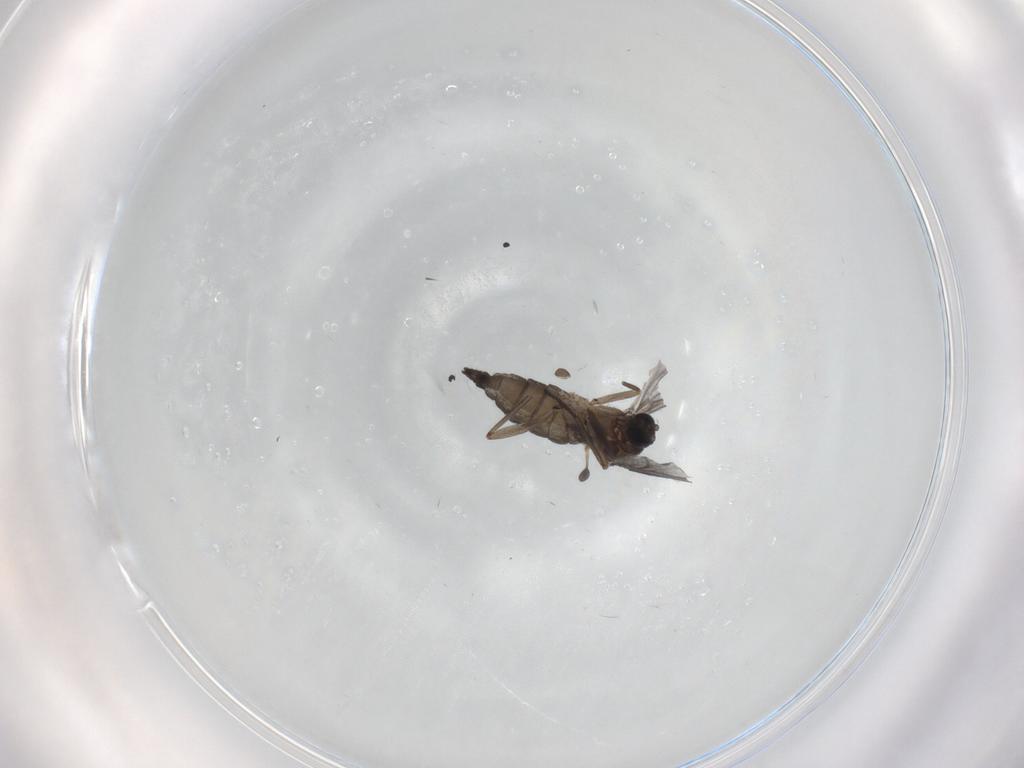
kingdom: Animalia
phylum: Arthropoda
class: Insecta
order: Diptera
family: Sciaridae
